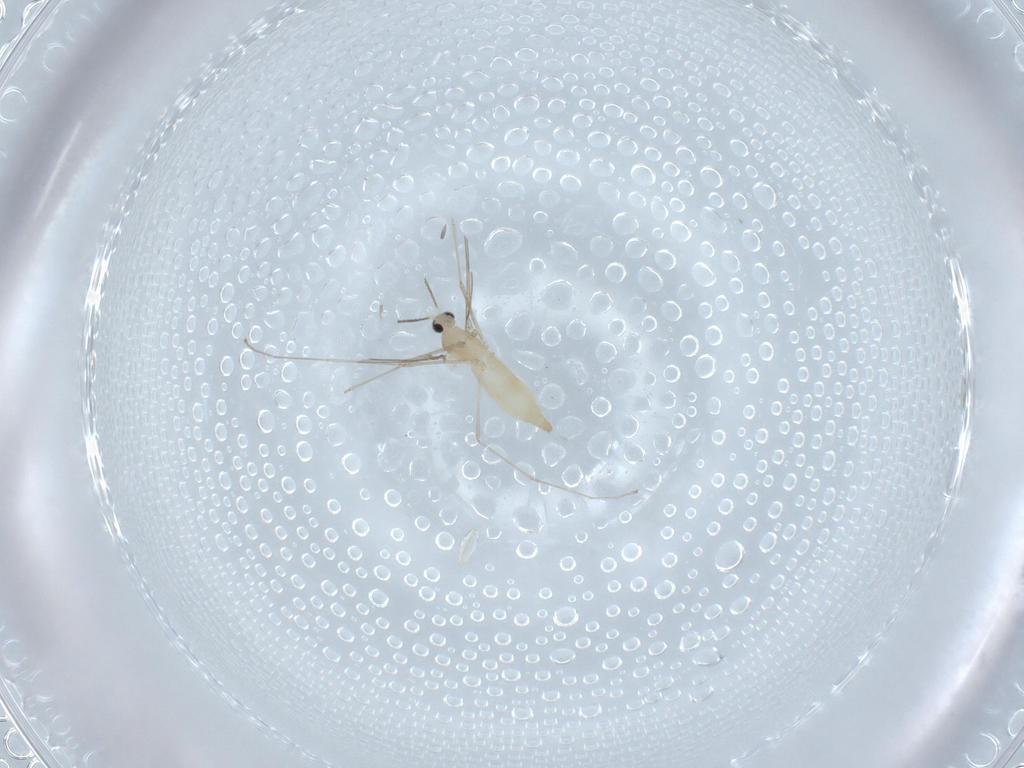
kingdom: Animalia
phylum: Arthropoda
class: Insecta
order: Diptera
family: Cecidomyiidae
